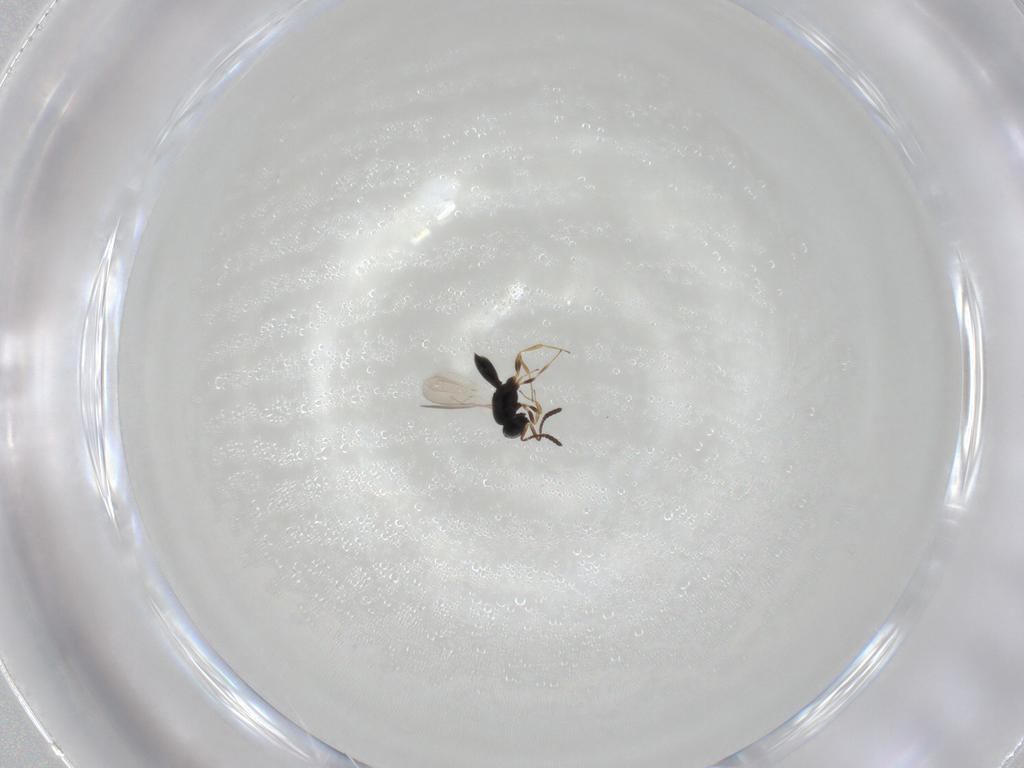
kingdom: Animalia
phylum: Arthropoda
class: Insecta
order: Hymenoptera
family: Scelionidae
